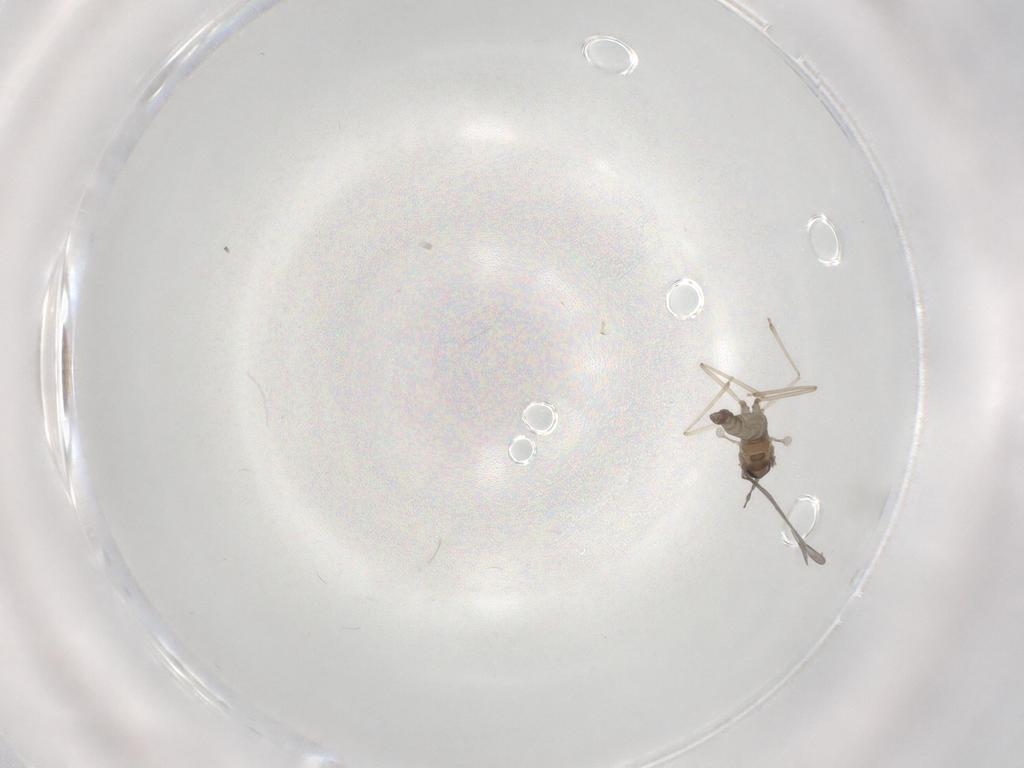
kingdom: Animalia
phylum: Arthropoda
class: Insecta
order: Diptera
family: Cecidomyiidae
